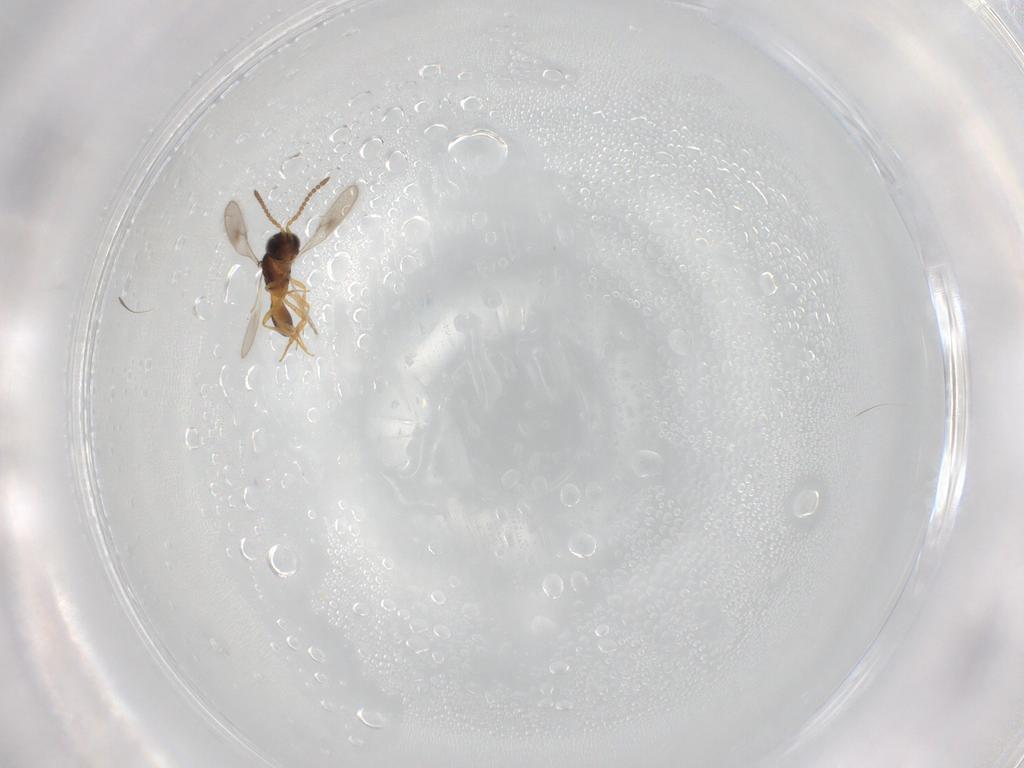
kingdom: Animalia
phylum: Arthropoda
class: Insecta
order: Hymenoptera
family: Scelionidae
